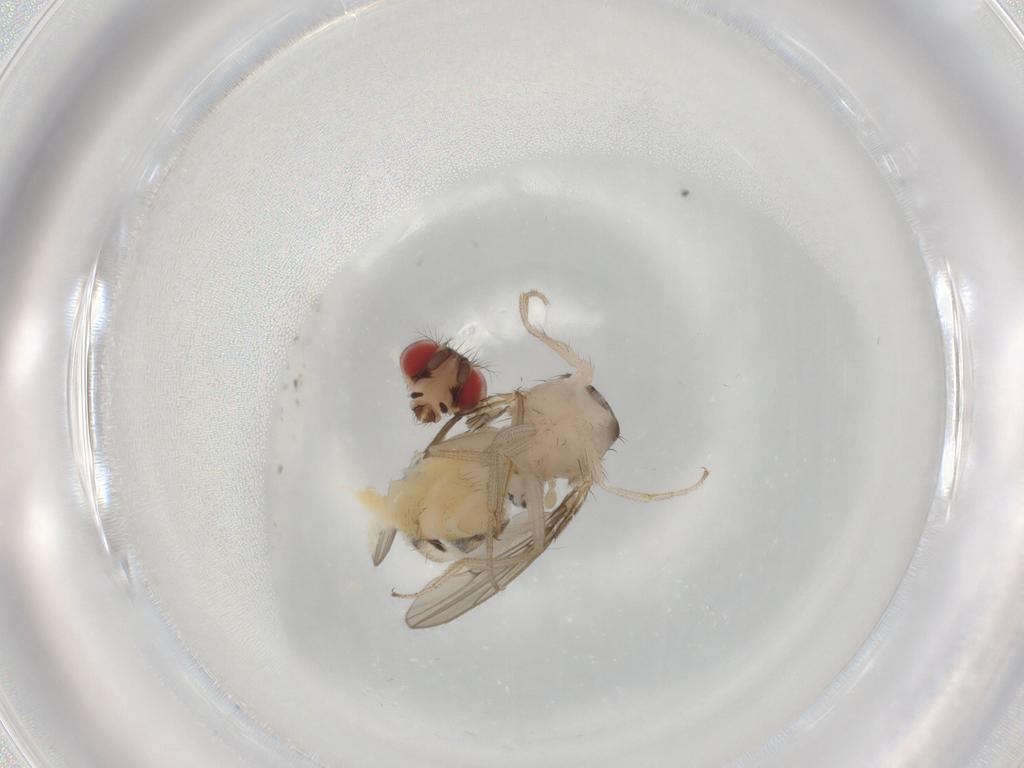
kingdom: Animalia
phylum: Arthropoda
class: Insecta
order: Diptera
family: Drosophilidae
